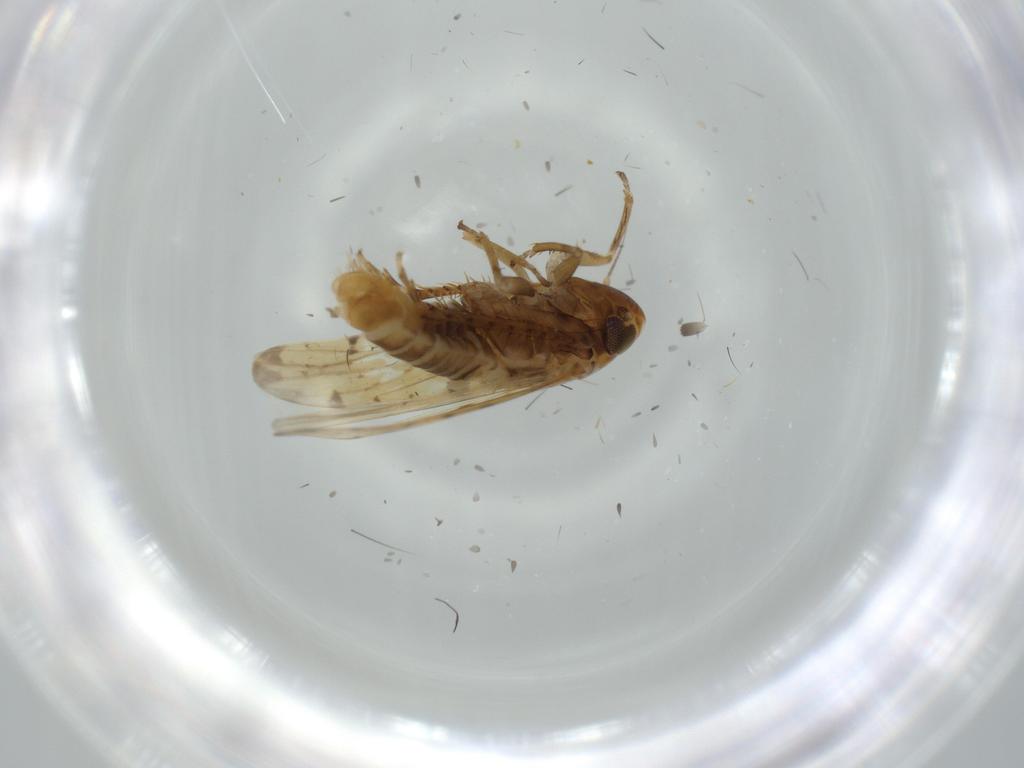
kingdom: Animalia
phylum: Arthropoda
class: Insecta
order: Hemiptera
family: Cicadellidae
